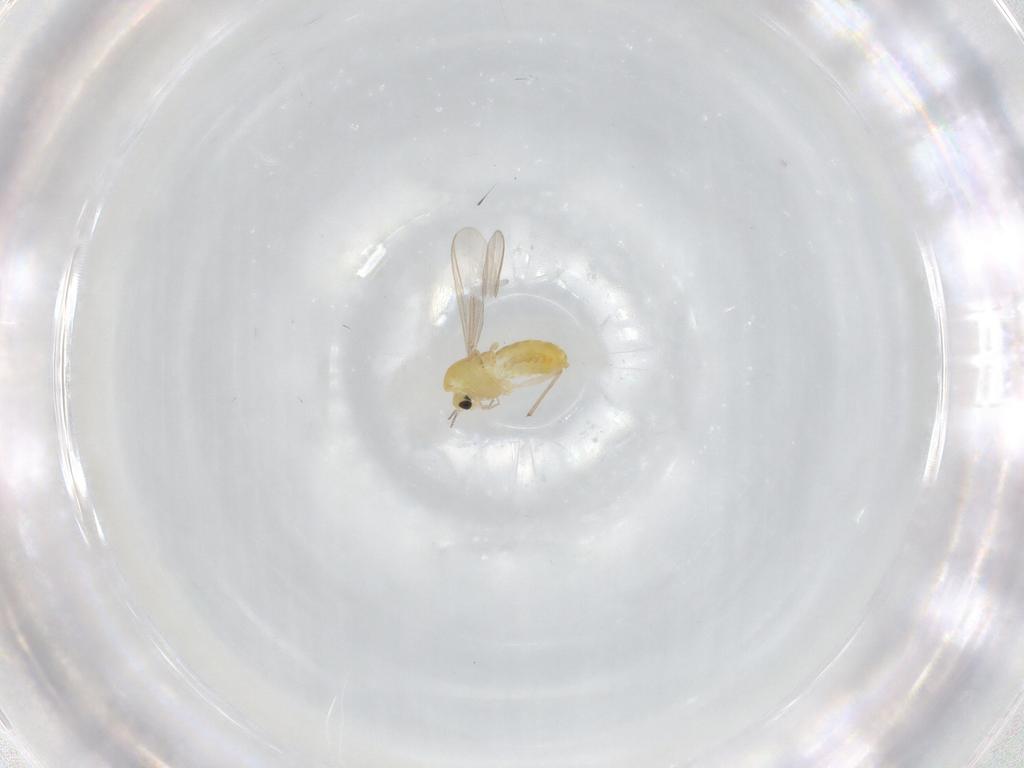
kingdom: Animalia
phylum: Arthropoda
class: Insecta
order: Diptera
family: Chironomidae
